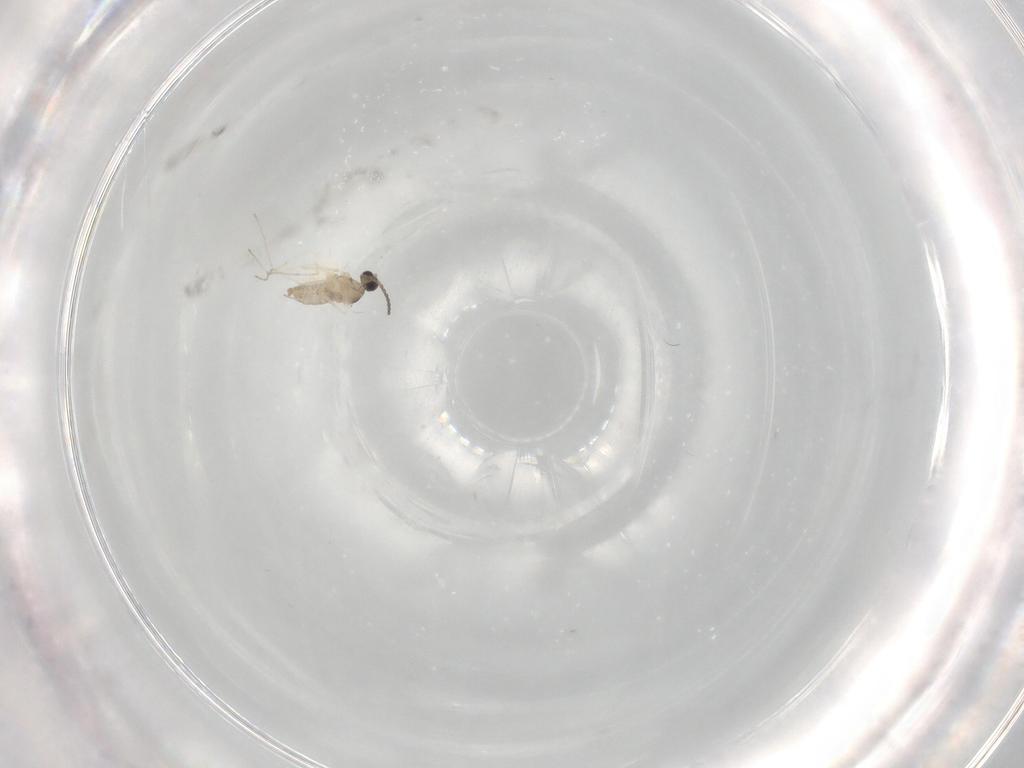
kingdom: Animalia
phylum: Arthropoda
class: Insecta
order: Diptera
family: Cecidomyiidae
